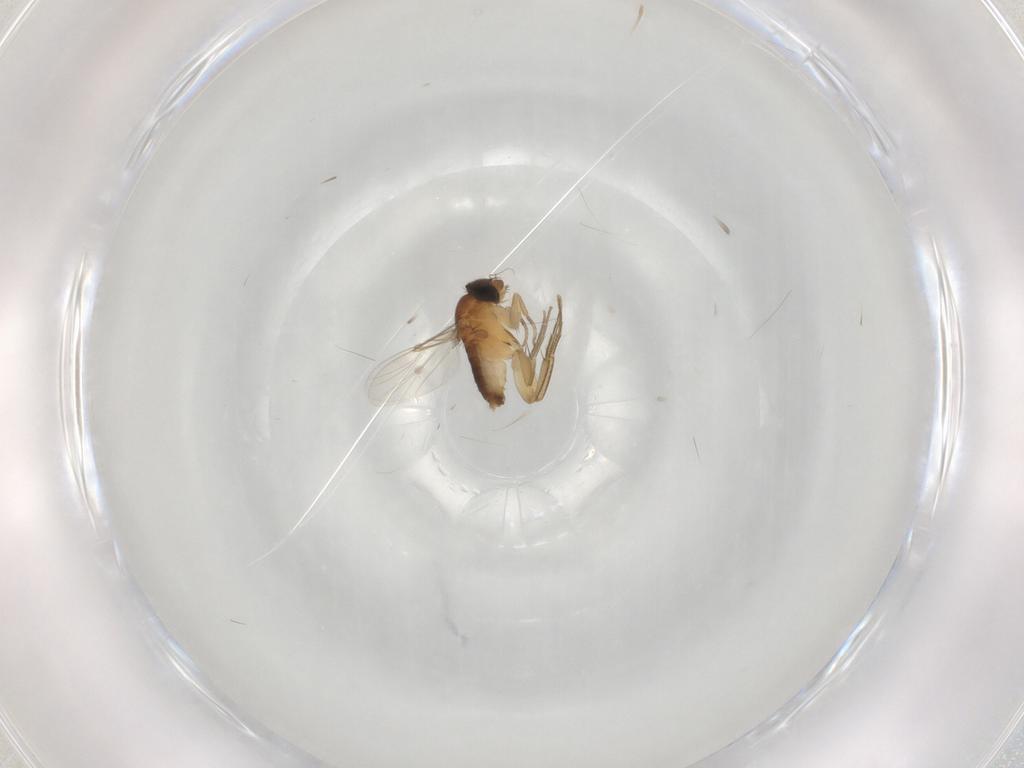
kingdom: Animalia
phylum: Arthropoda
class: Insecta
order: Diptera
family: Phoridae
